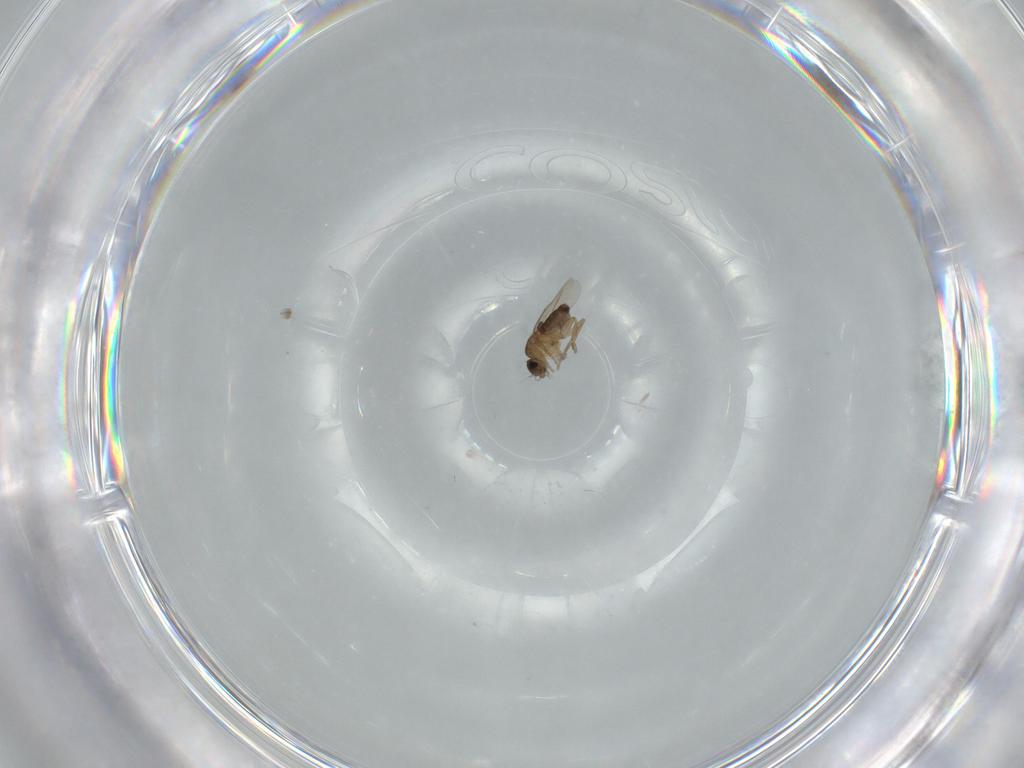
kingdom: Animalia
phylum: Arthropoda
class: Insecta
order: Diptera
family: Phoridae
